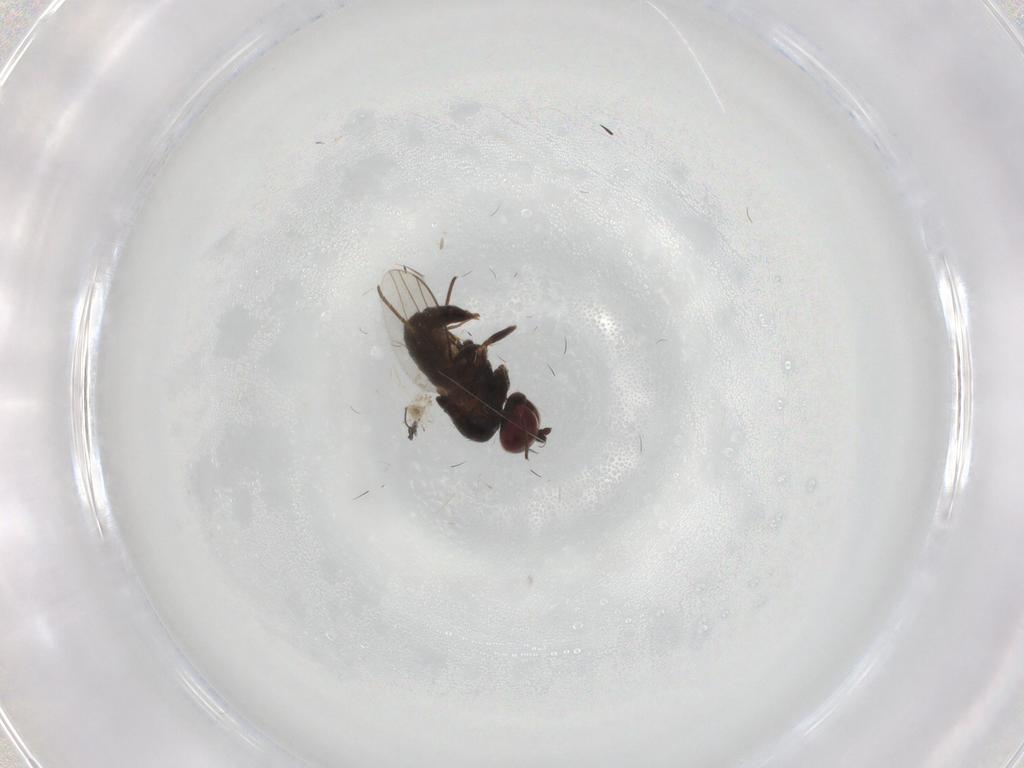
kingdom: Animalia
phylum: Arthropoda
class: Insecta
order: Diptera
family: Dolichopodidae
